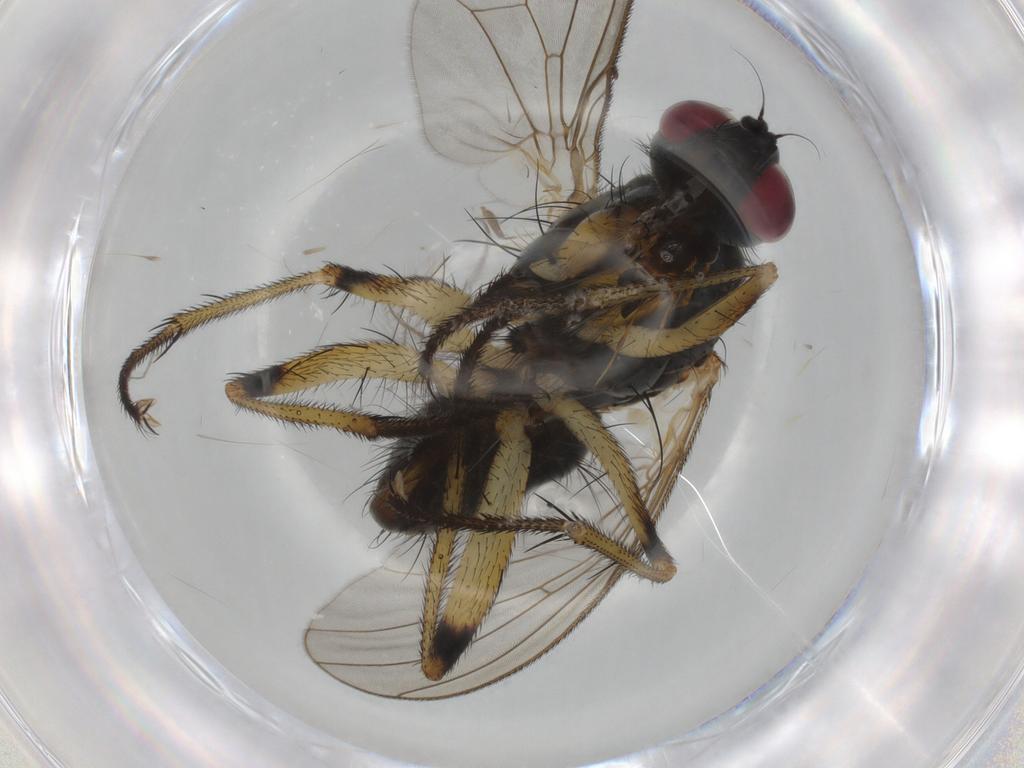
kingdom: Animalia
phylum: Arthropoda
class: Insecta
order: Diptera
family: Muscidae
